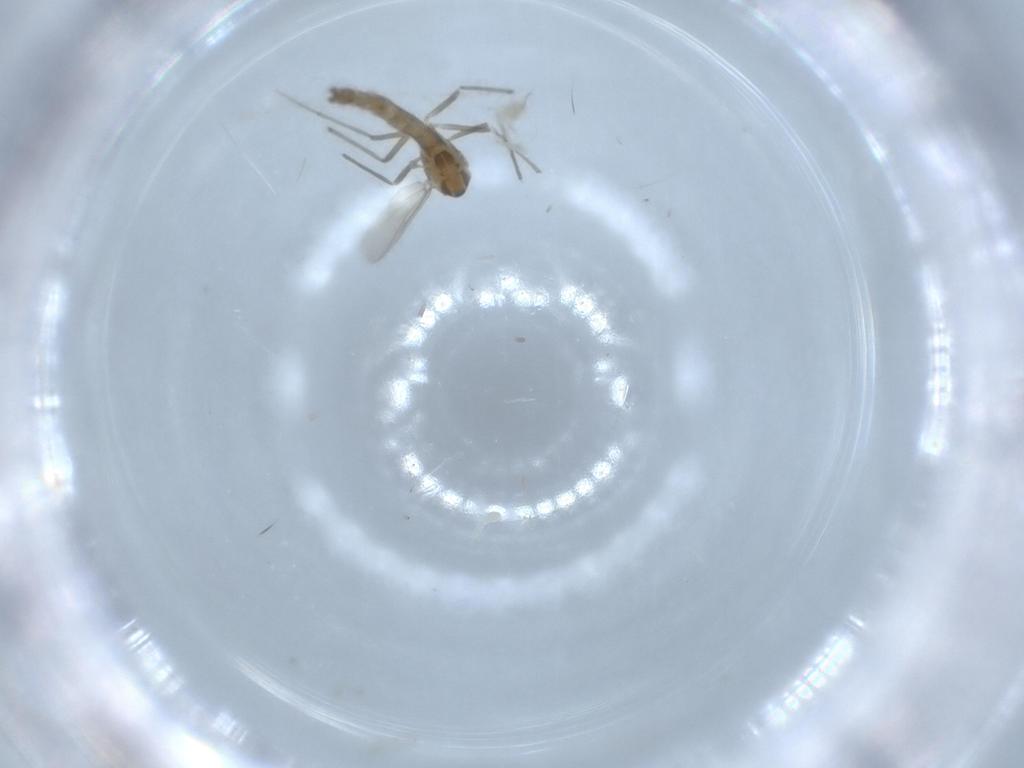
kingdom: Animalia
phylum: Arthropoda
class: Insecta
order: Diptera
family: Chironomidae
